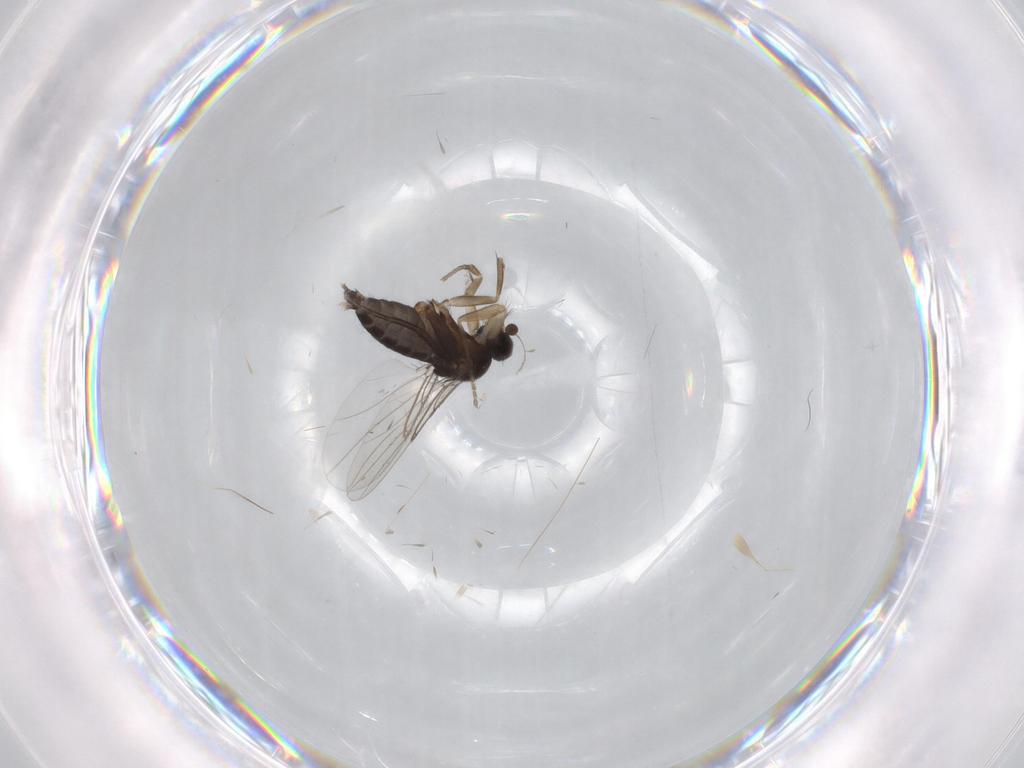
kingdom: Animalia
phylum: Arthropoda
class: Insecta
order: Diptera
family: Phoridae
